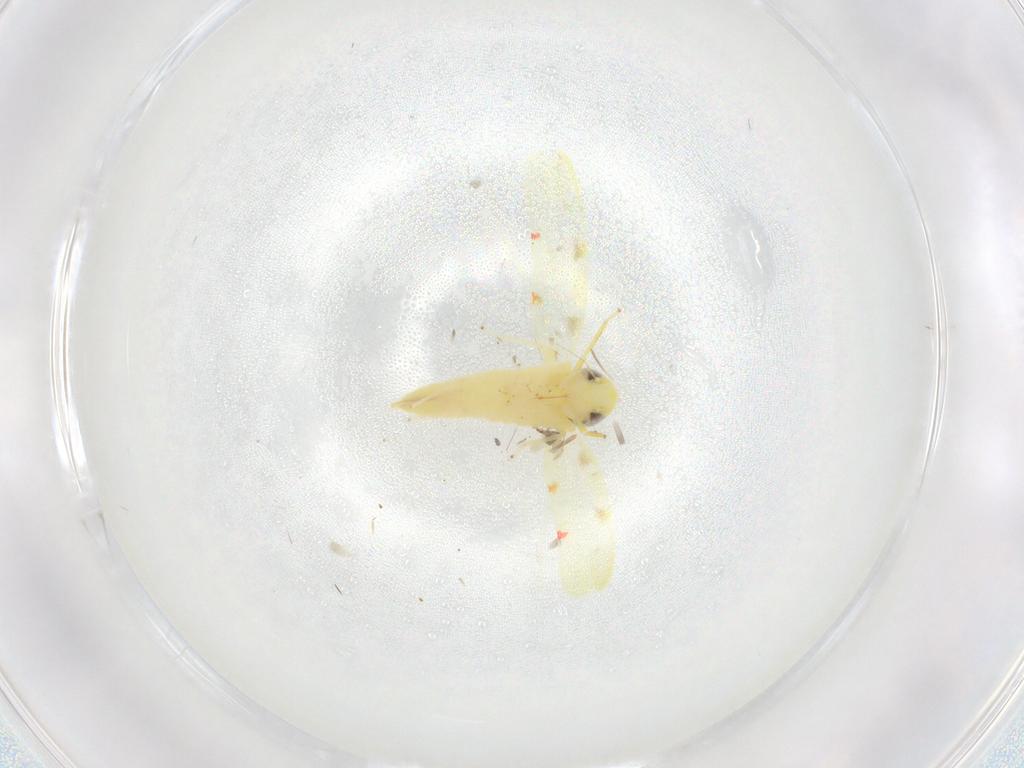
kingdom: Animalia
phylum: Arthropoda
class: Insecta
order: Hemiptera
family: Cicadellidae
